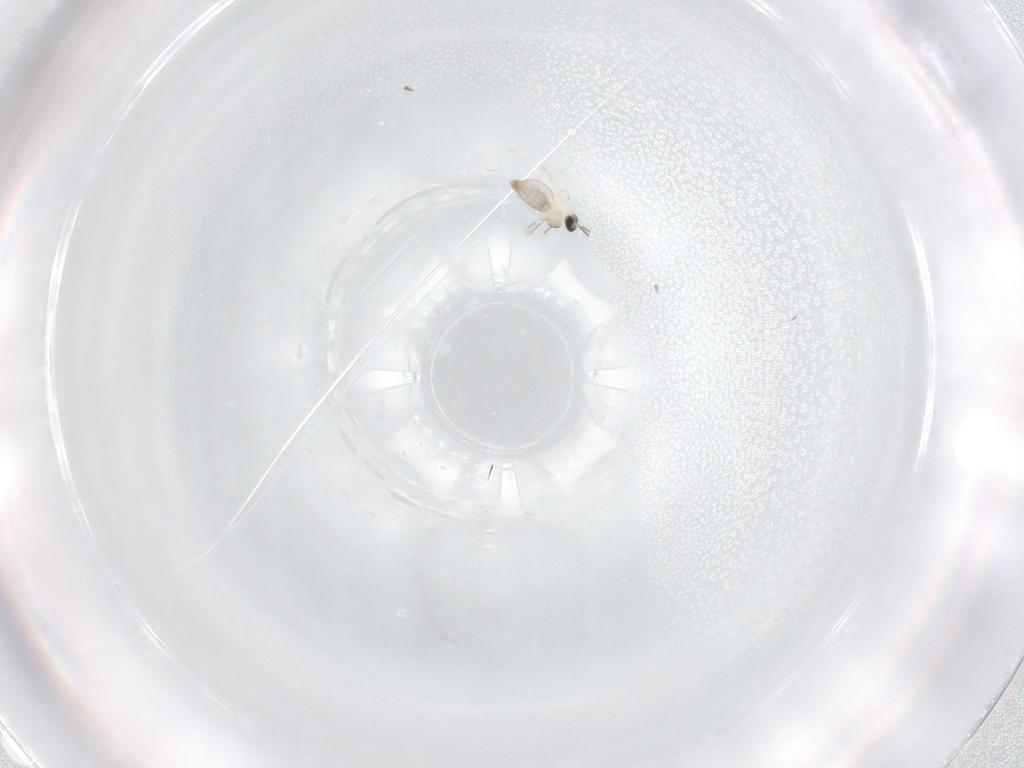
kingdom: Animalia
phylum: Arthropoda
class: Insecta
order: Diptera
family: Cecidomyiidae
